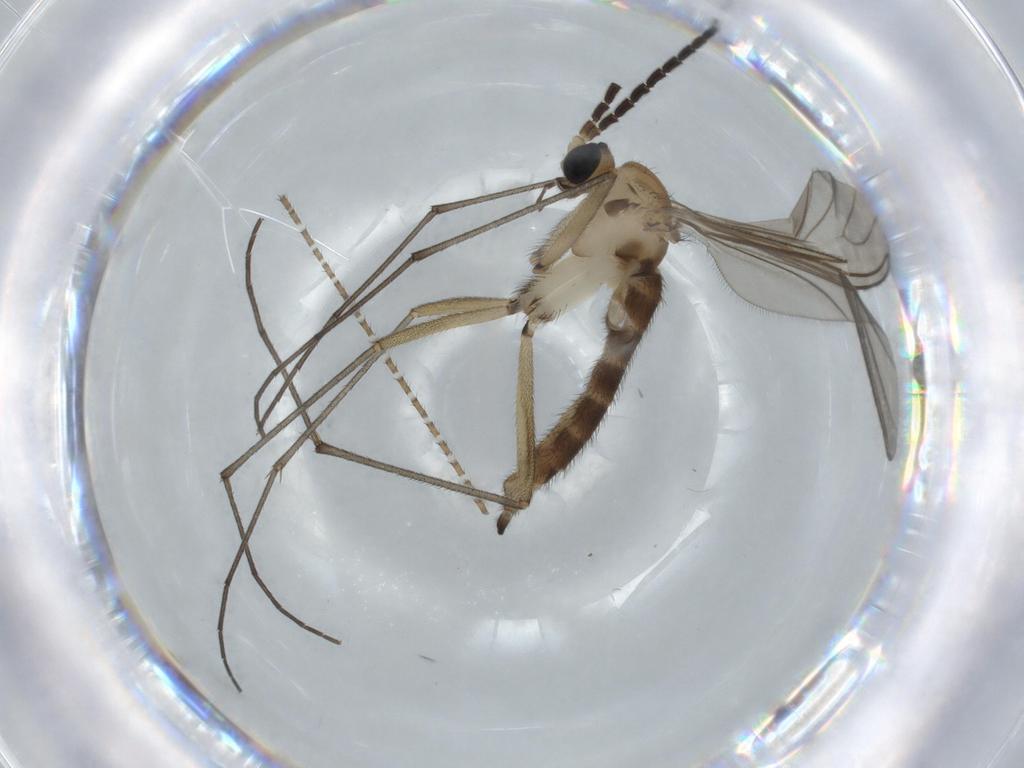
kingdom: Animalia
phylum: Arthropoda
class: Insecta
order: Diptera
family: Sciaridae
